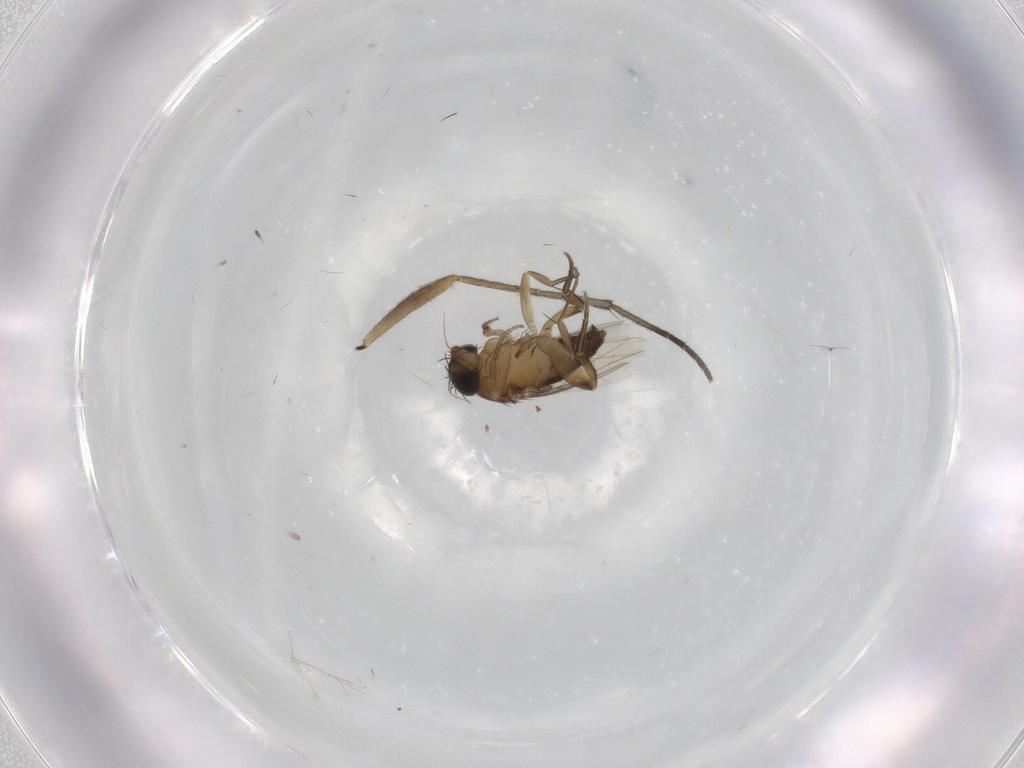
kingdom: Animalia
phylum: Arthropoda
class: Insecta
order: Diptera
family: Phoridae
